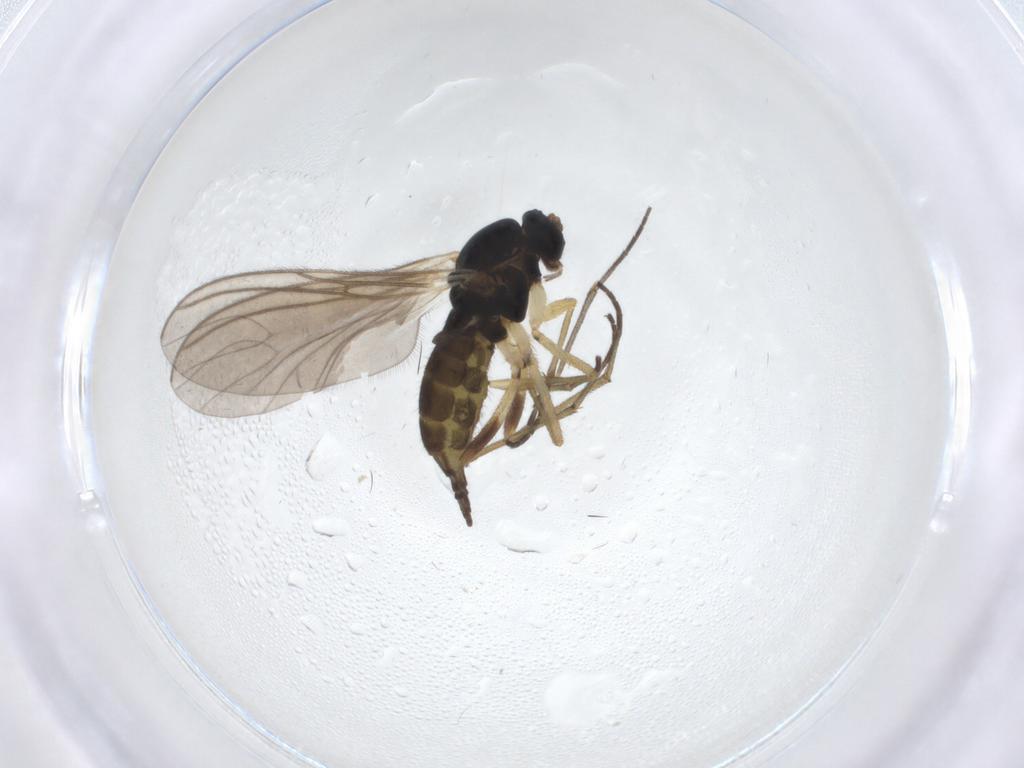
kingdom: Animalia
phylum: Arthropoda
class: Insecta
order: Diptera
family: Sciaridae
